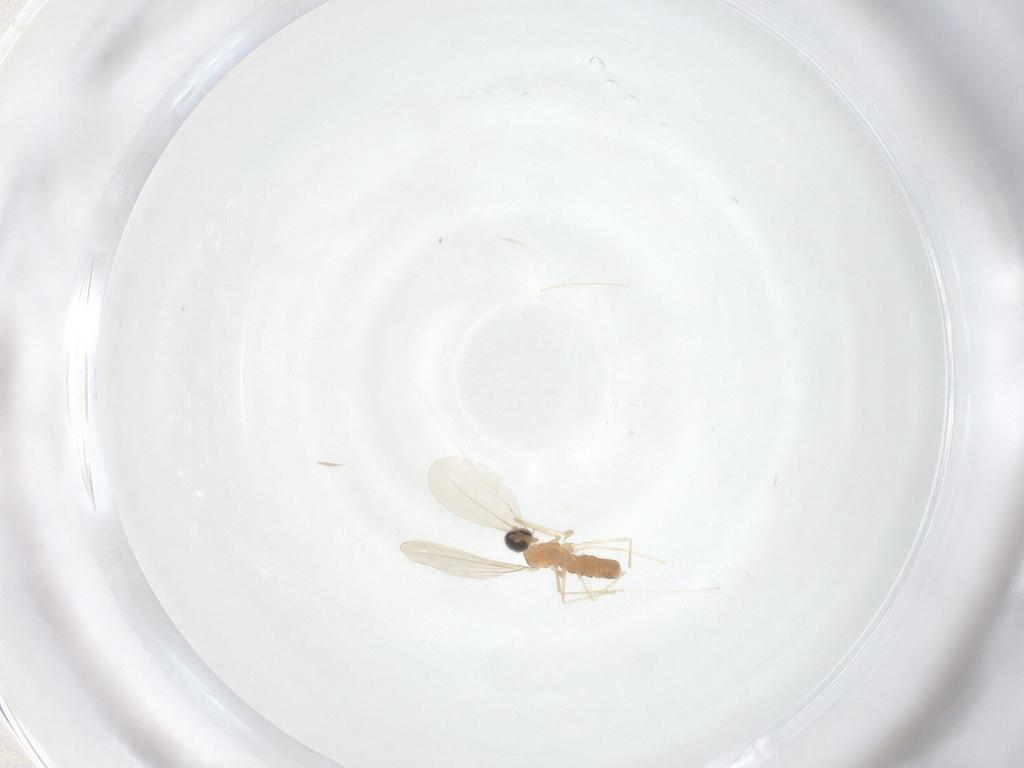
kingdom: Animalia
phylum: Arthropoda
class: Insecta
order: Diptera
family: Cecidomyiidae
